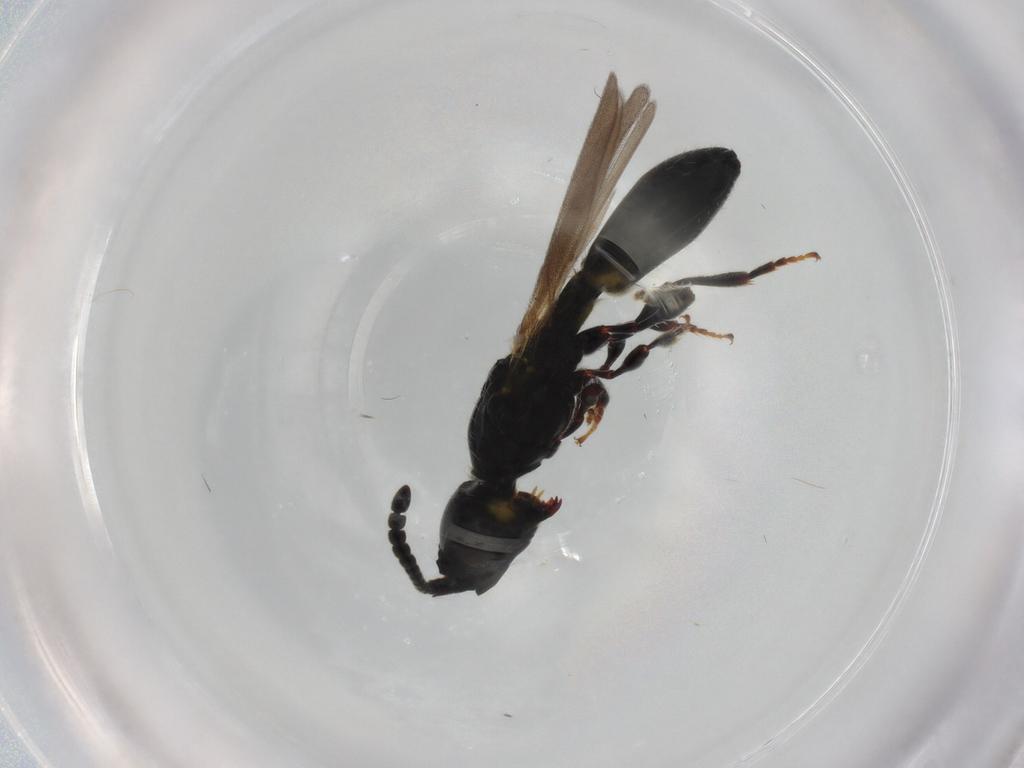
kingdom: Animalia
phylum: Arthropoda
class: Insecta
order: Hymenoptera
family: Diapriidae
